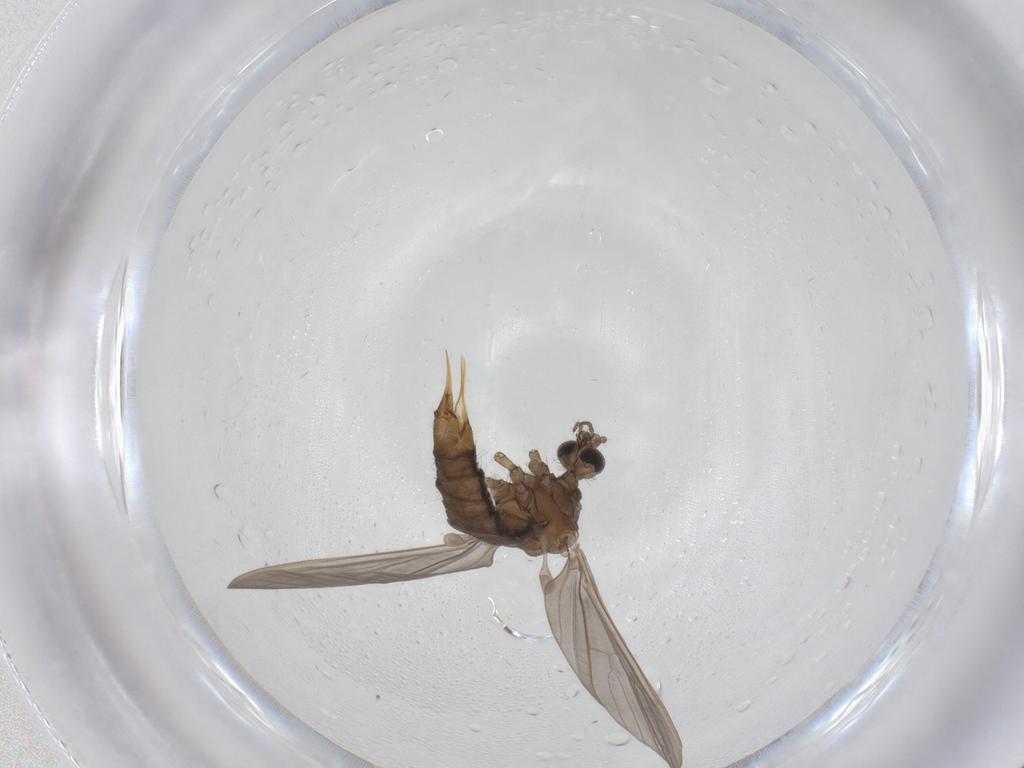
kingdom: Animalia
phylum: Arthropoda
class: Insecta
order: Diptera
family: Limoniidae
